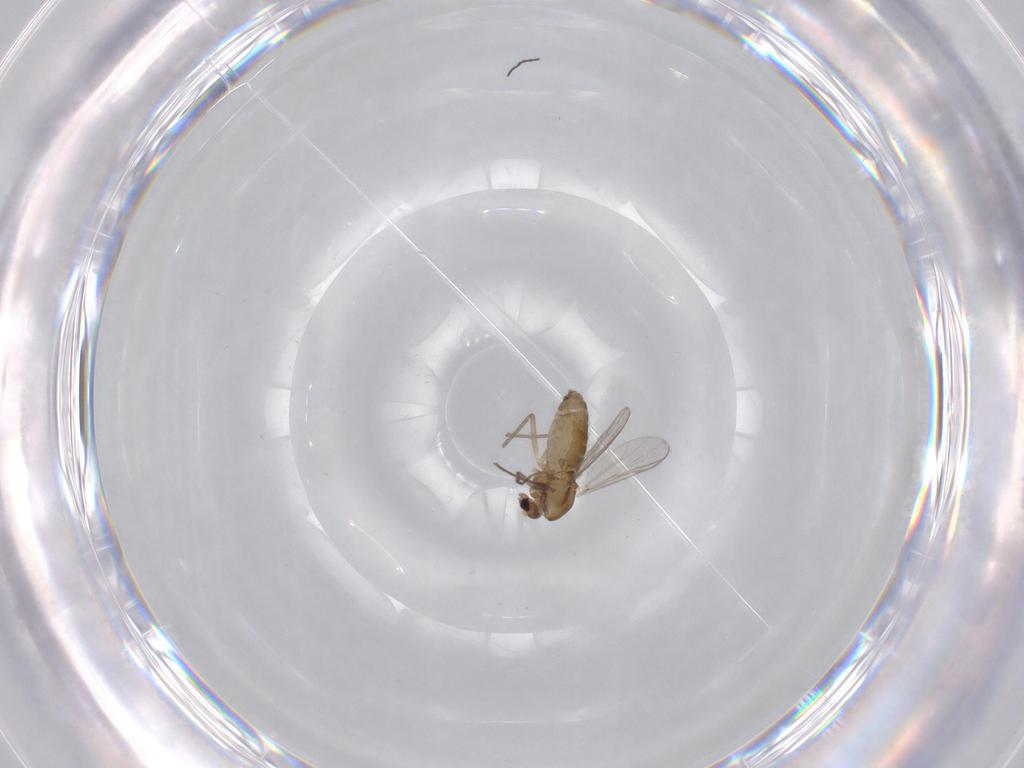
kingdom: Animalia
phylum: Arthropoda
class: Insecta
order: Diptera
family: Chironomidae
